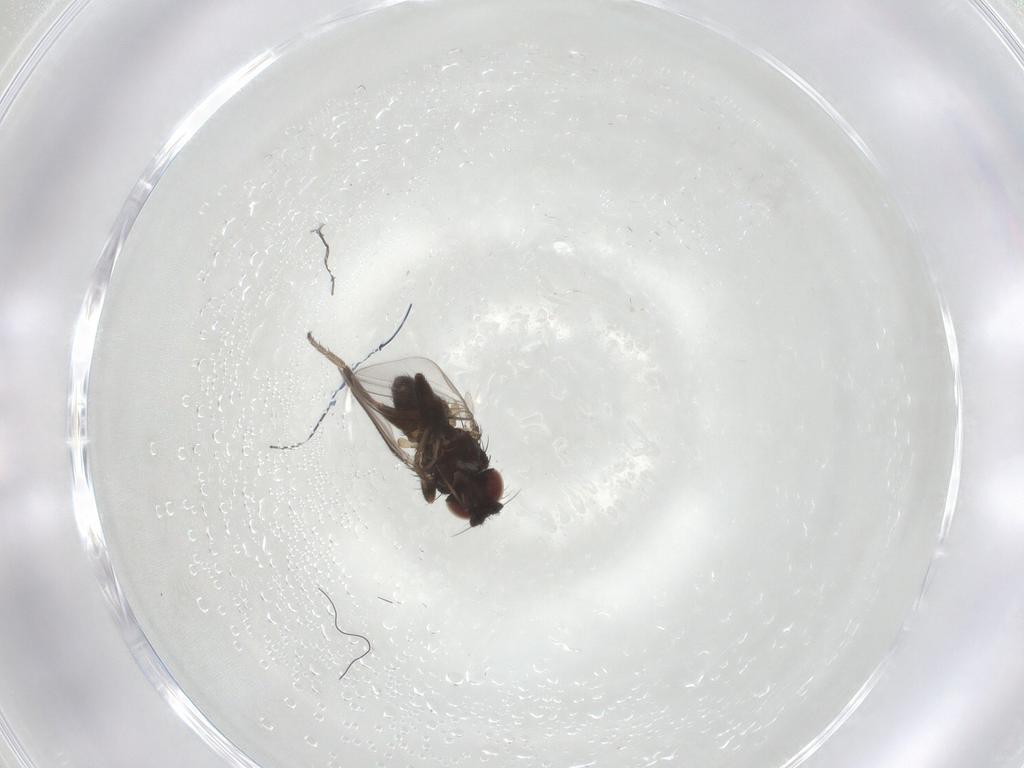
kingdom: Animalia
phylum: Arthropoda
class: Insecta
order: Diptera
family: Milichiidae
